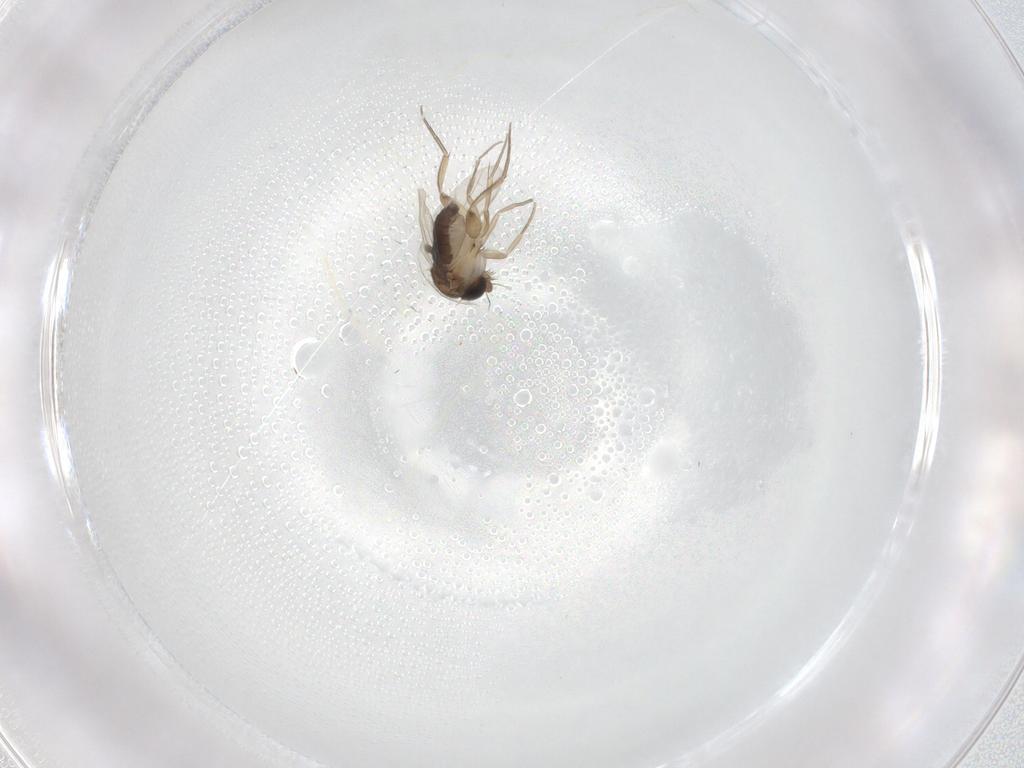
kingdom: Animalia
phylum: Arthropoda
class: Insecta
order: Diptera
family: Phoridae
